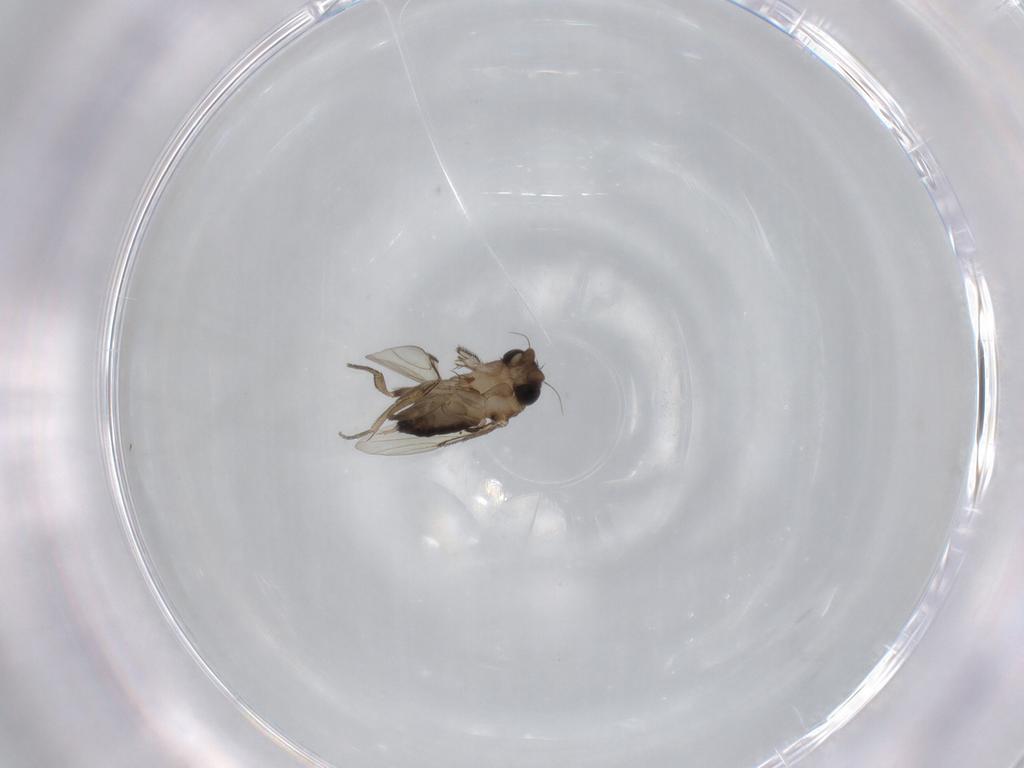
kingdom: Animalia
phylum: Arthropoda
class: Insecta
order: Diptera
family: Phoridae
